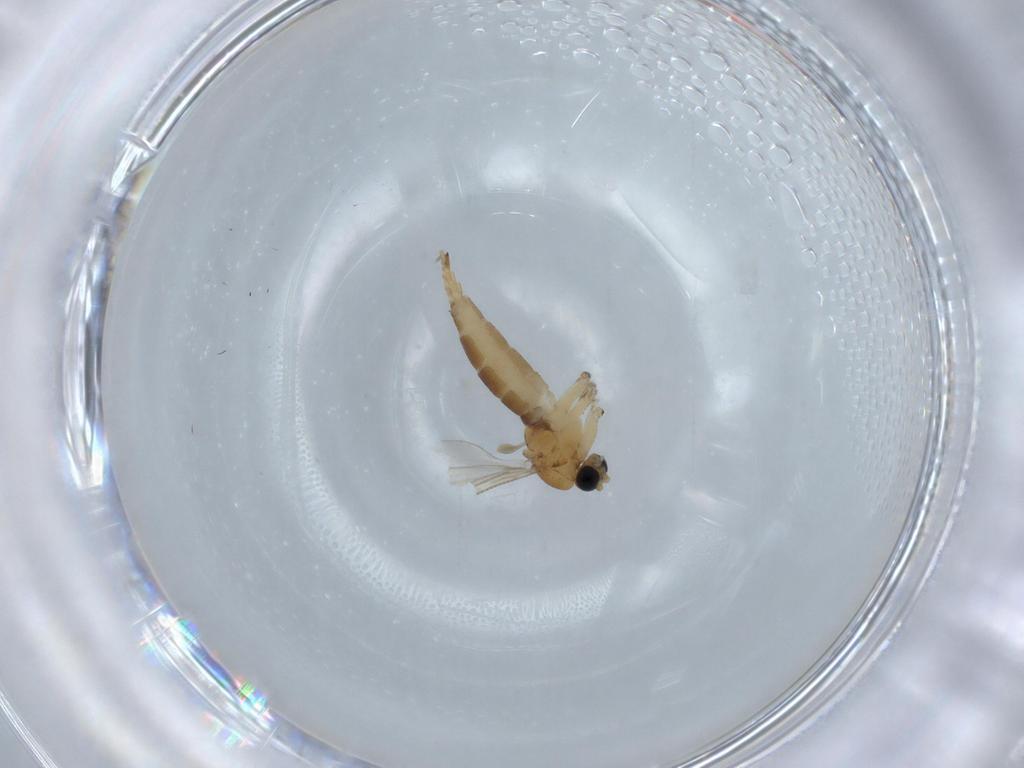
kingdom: Animalia
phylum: Arthropoda
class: Insecta
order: Diptera
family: Sciaridae
